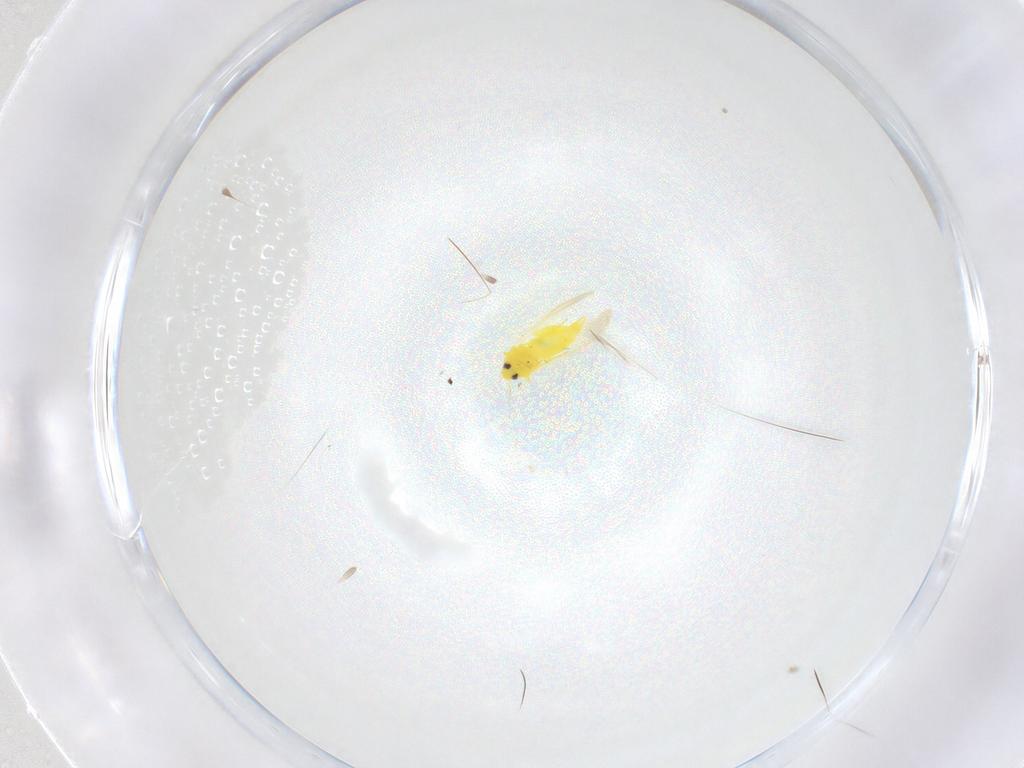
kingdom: Animalia
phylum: Arthropoda
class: Insecta
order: Hemiptera
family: Aleyrodidae
